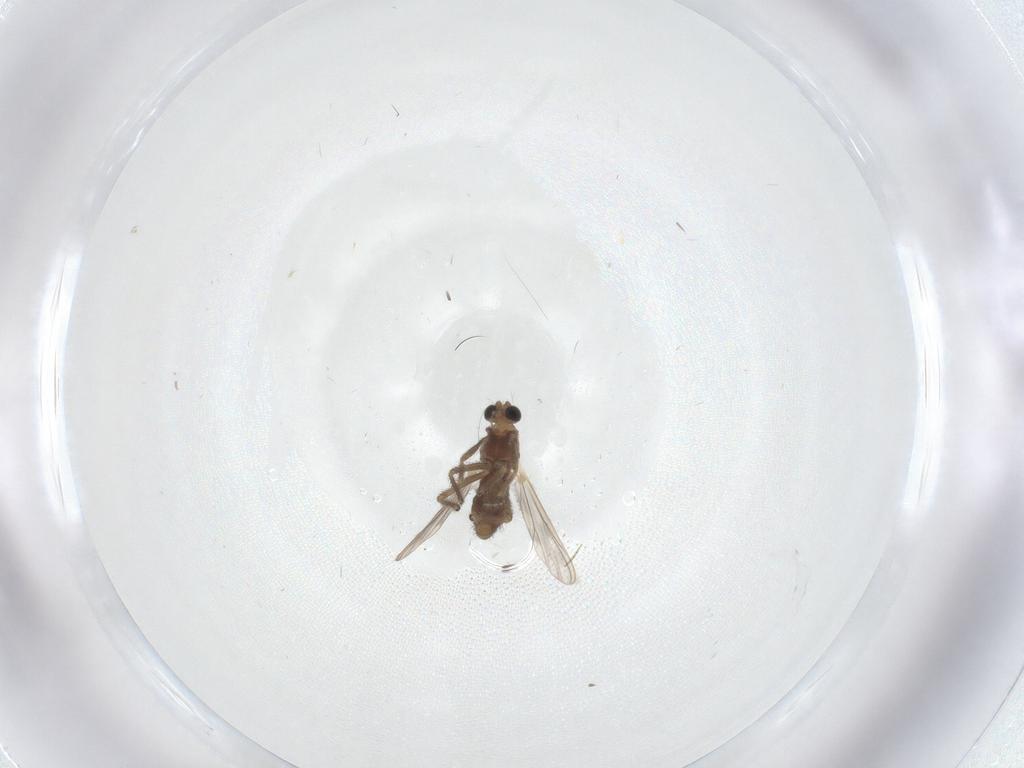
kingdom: Animalia
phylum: Arthropoda
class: Insecta
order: Diptera
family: Chironomidae
